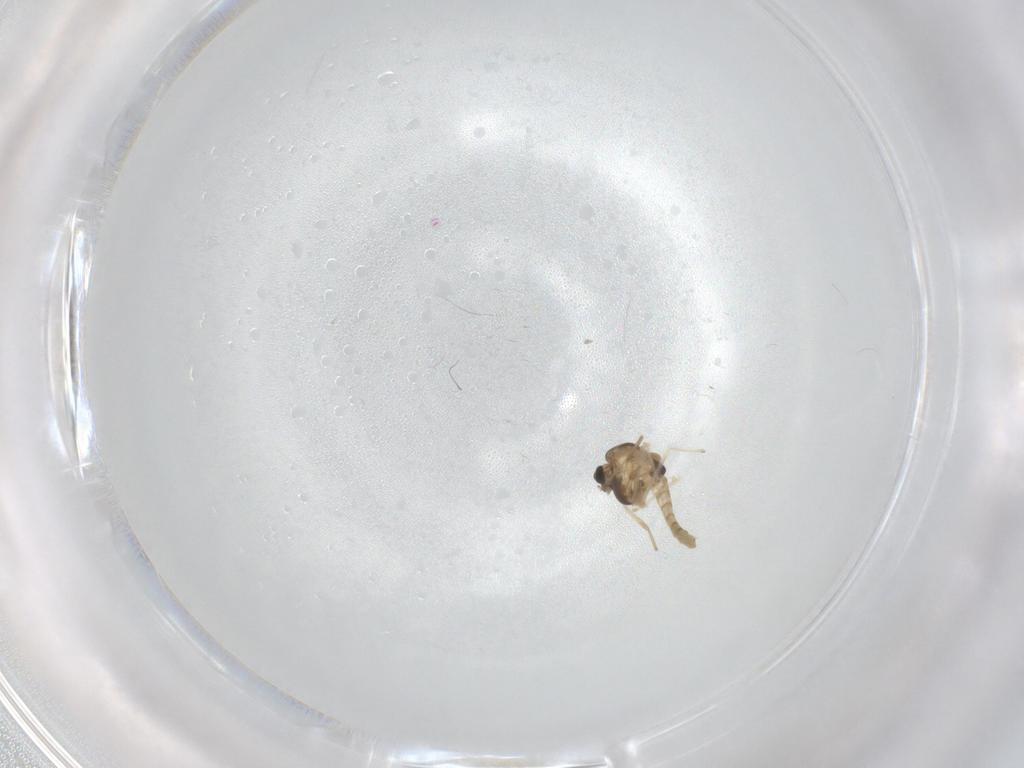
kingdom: Animalia
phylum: Arthropoda
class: Insecta
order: Diptera
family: Chironomidae
